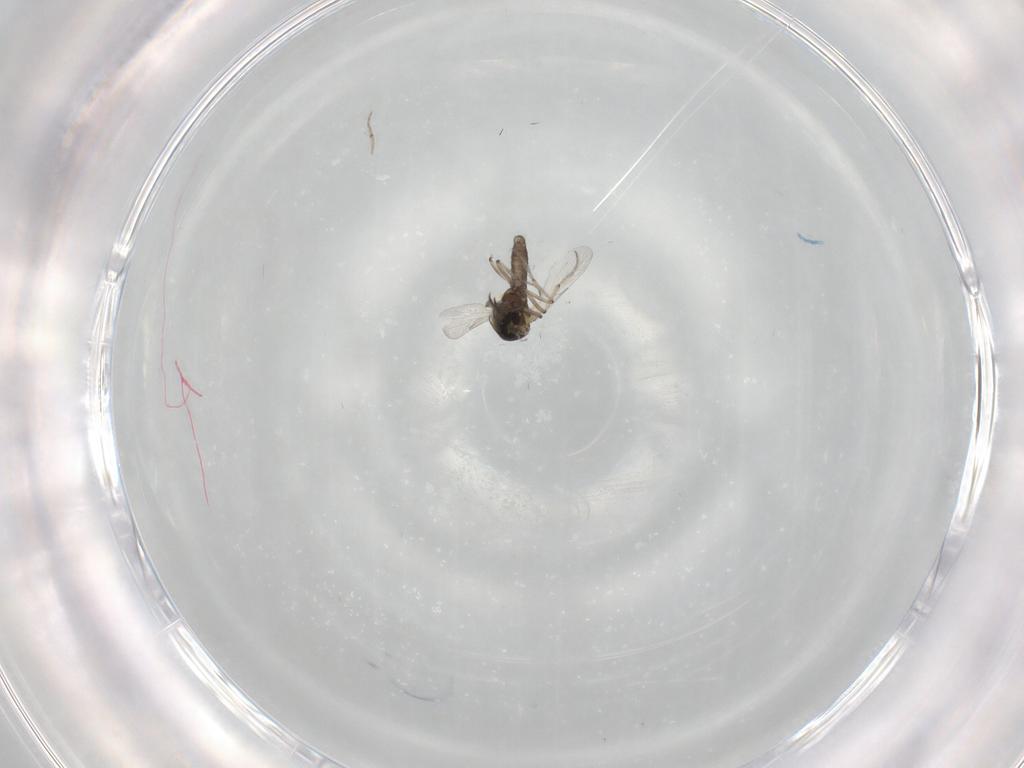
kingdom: Animalia
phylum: Arthropoda
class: Insecta
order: Diptera
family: Ceratopogonidae
